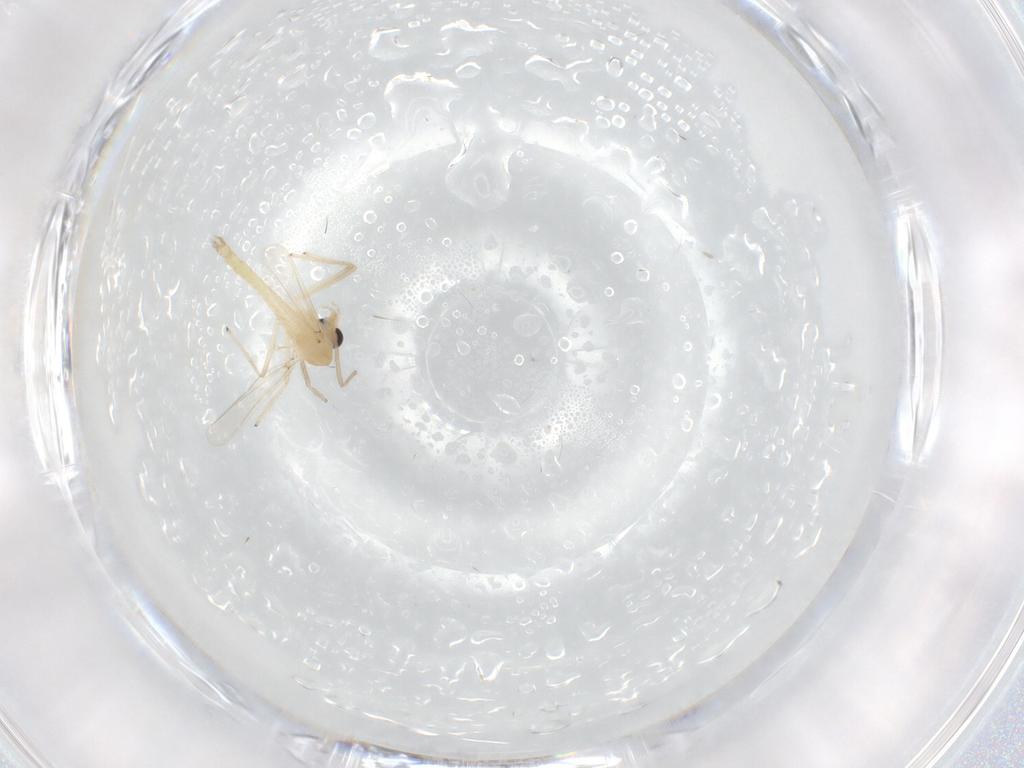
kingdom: Animalia
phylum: Arthropoda
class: Insecta
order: Diptera
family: Chironomidae
